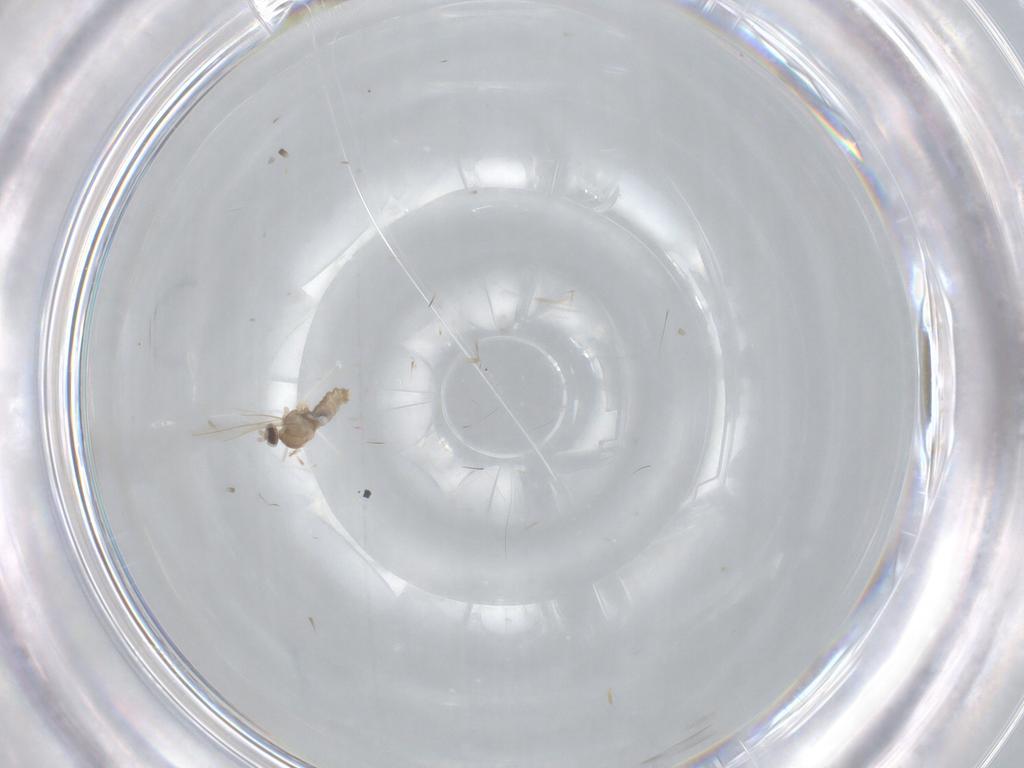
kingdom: Animalia
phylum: Arthropoda
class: Insecta
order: Diptera
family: Cecidomyiidae
